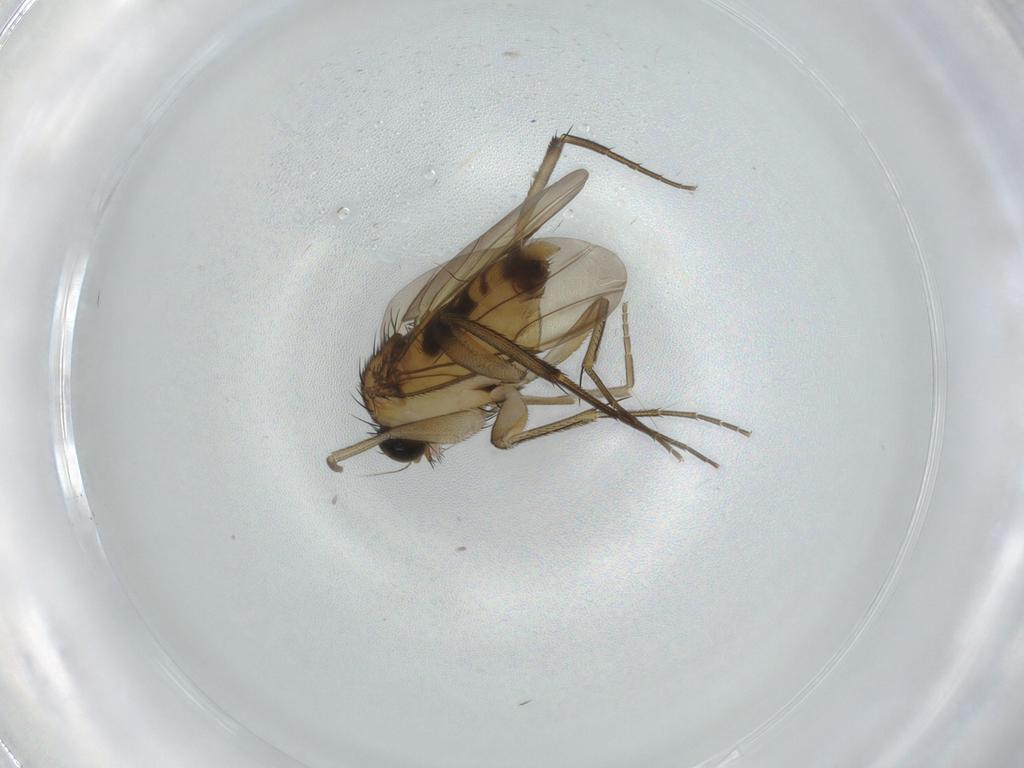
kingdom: Animalia
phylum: Arthropoda
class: Insecta
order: Diptera
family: Phoridae
